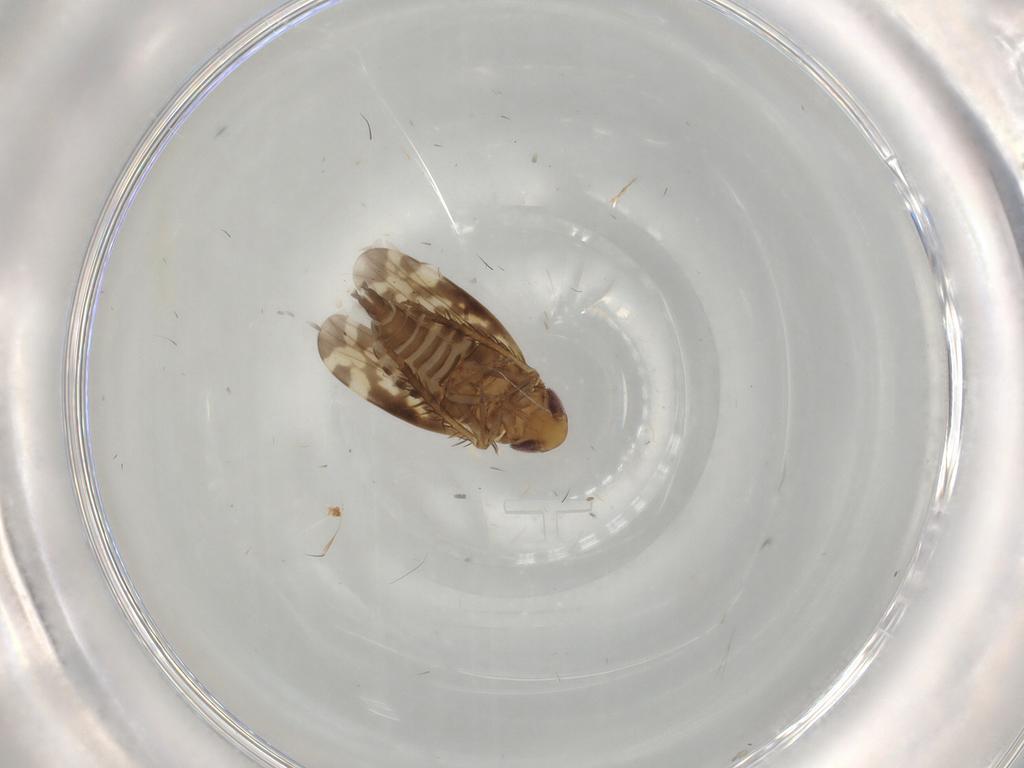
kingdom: Animalia
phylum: Arthropoda
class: Insecta
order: Hemiptera
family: Cicadellidae
